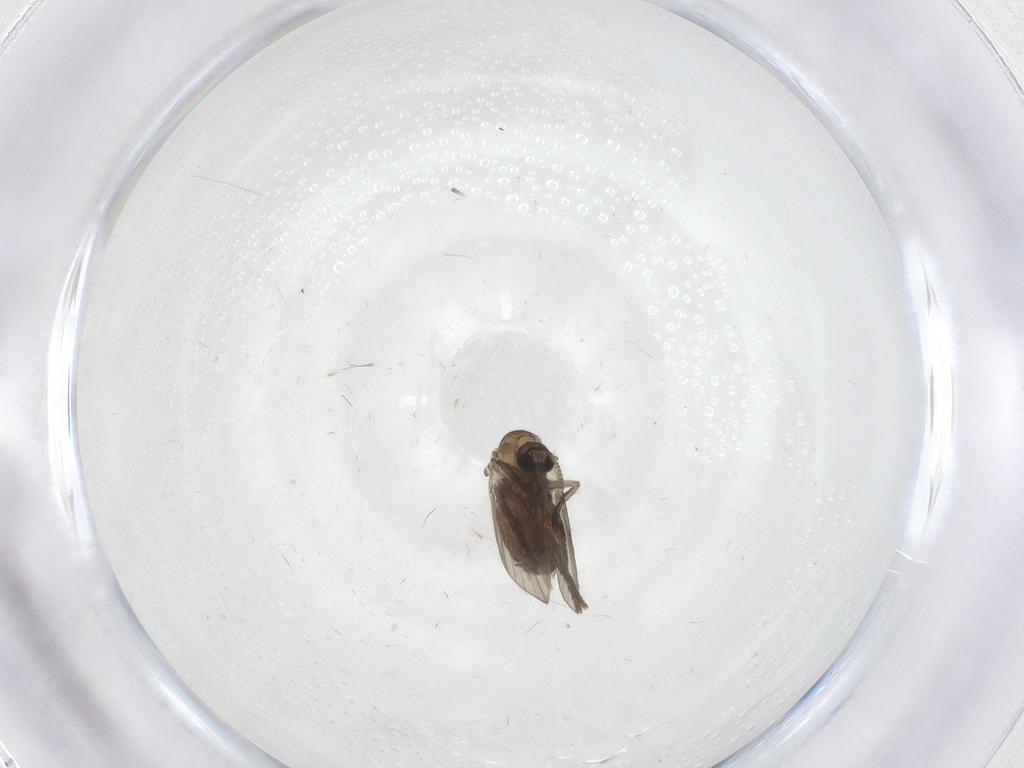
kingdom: Animalia
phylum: Arthropoda
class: Insecta
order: Diptera
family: Psychodidae
